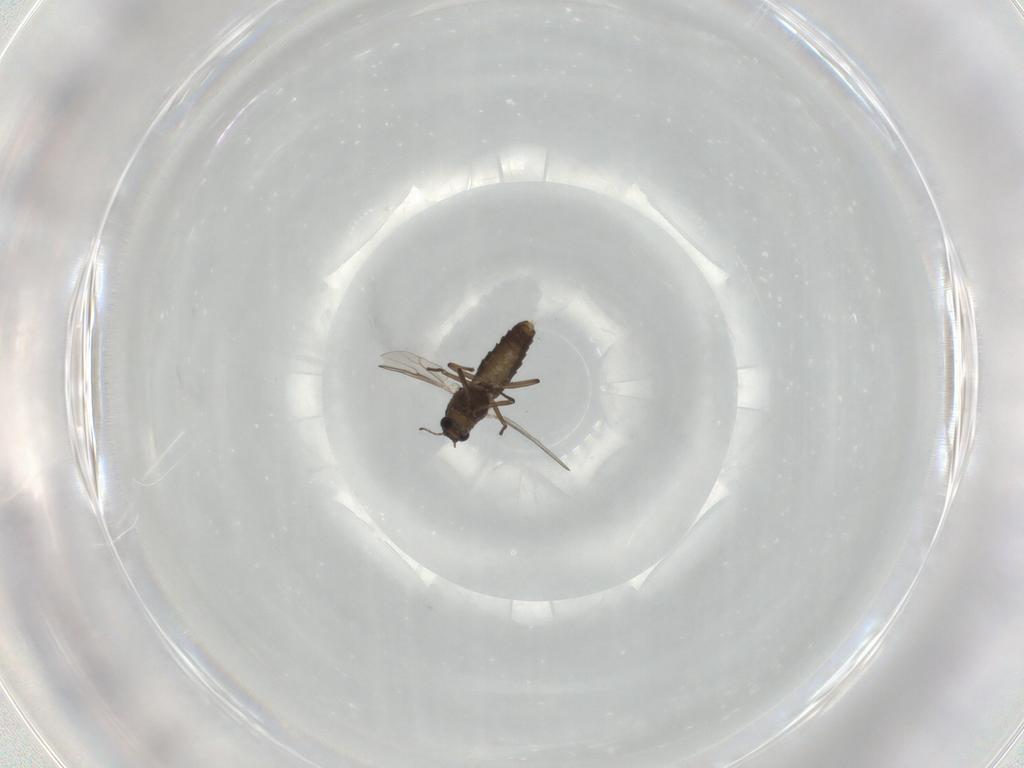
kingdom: Animalia
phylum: Arthropoda
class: Insecta
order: Diptera
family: Chironomidae
